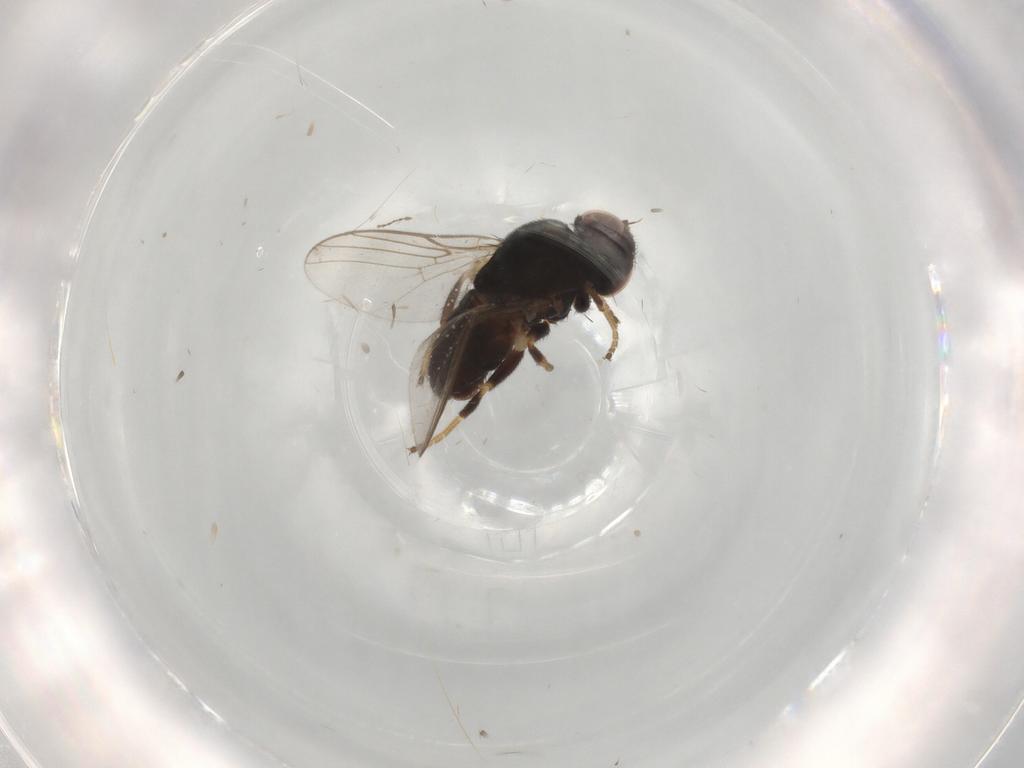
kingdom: Animalia
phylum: Arthropoda
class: Insecta
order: Diptera
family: Chloropidae
